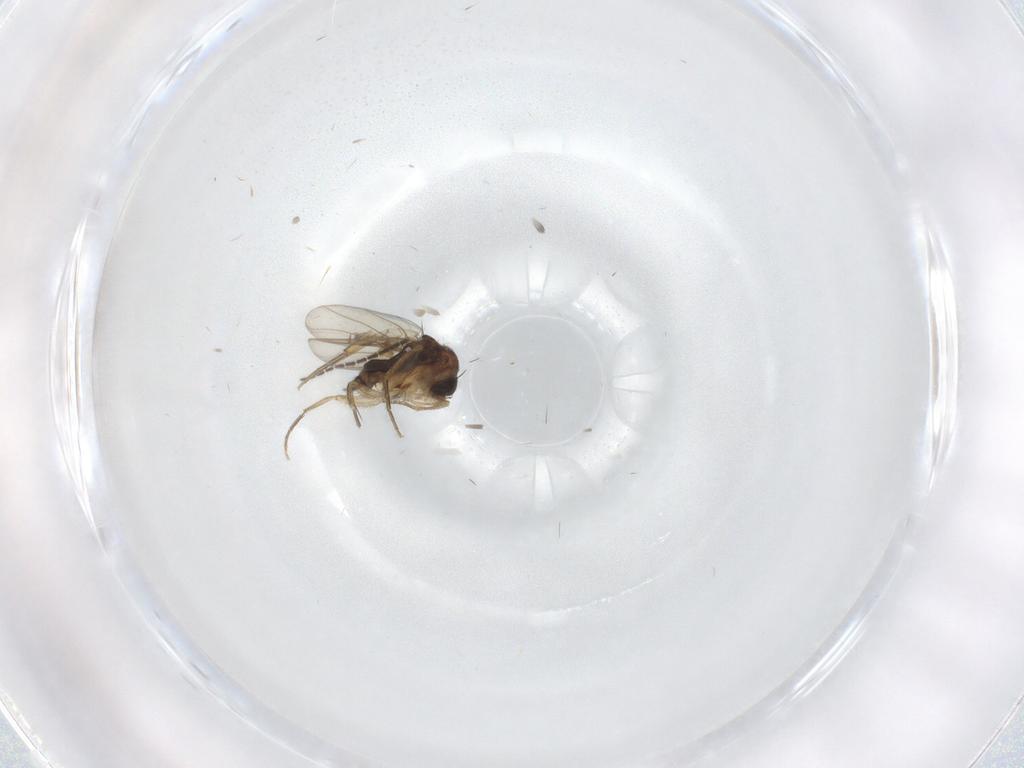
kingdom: Animalia
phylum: Arthropoda
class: Insecta
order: Diptera
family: Phoridae
